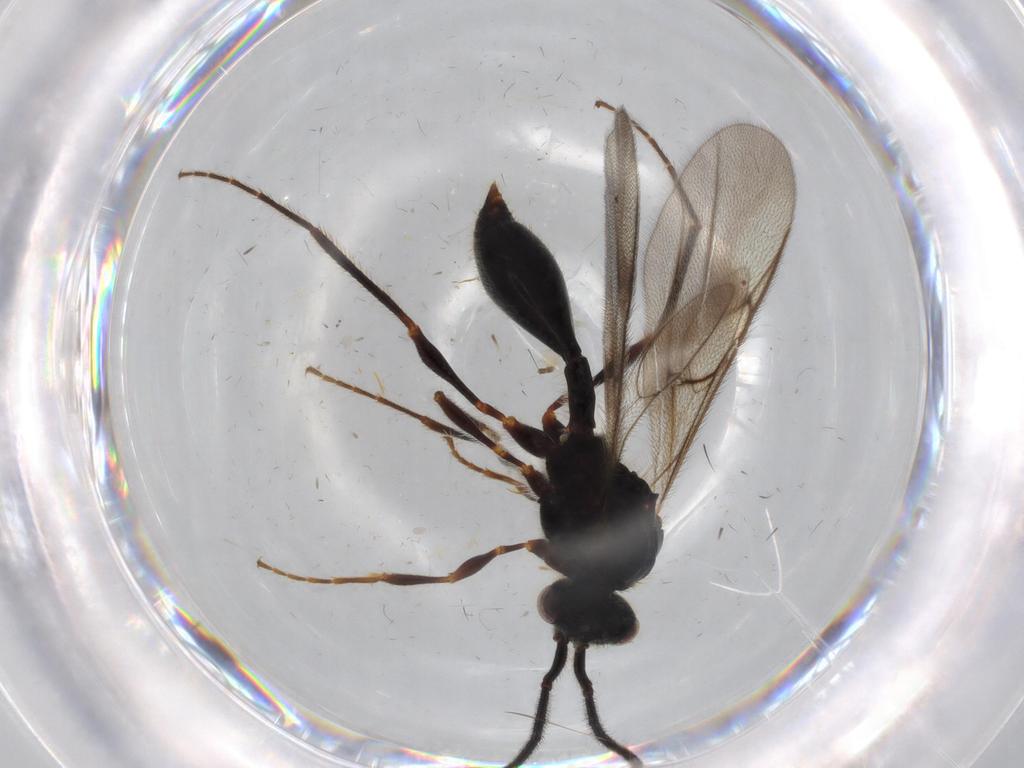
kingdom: Animalia
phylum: Arthropoda
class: Insecta
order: Hymenoptera
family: Diapriidae
